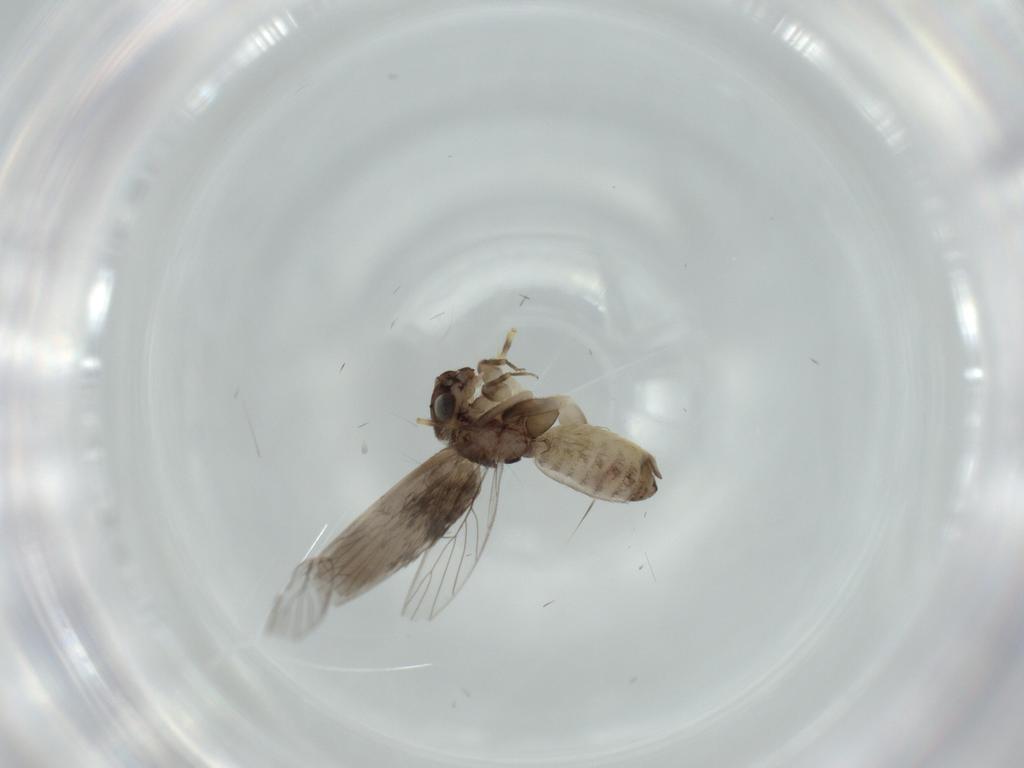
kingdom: Animalia
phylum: Arthropoda
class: Insecta
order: Psocodea
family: Lepidopsocidae
